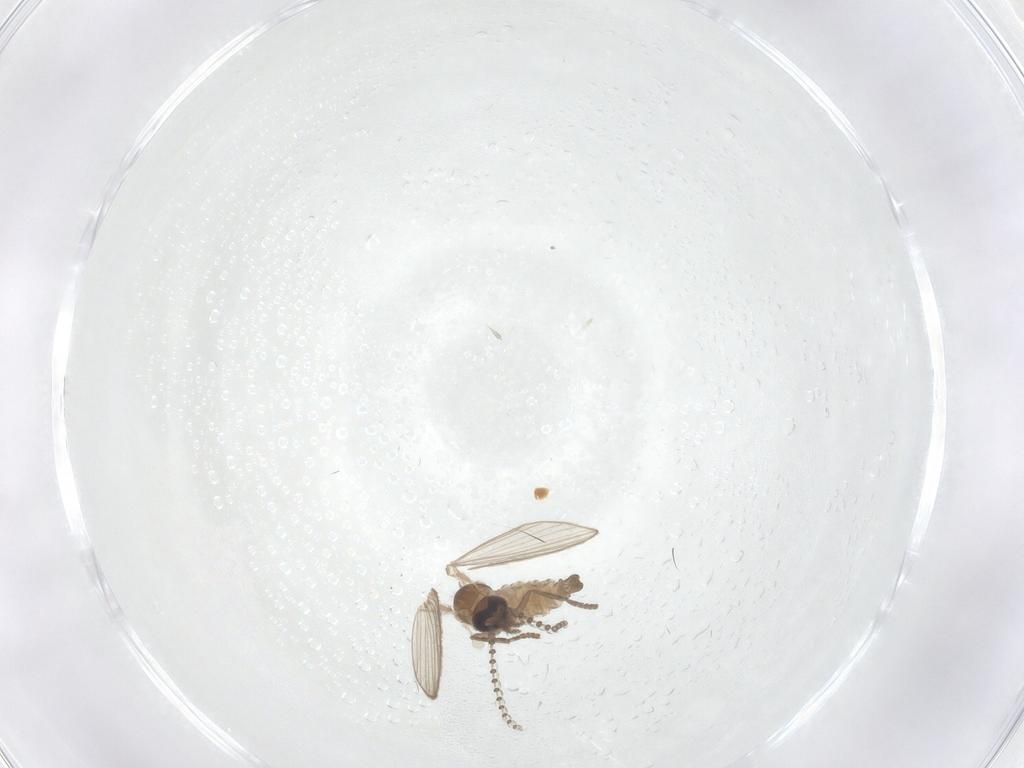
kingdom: Animalia
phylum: Arthropoda
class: Insecta
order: Diptera
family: Psychodidae
